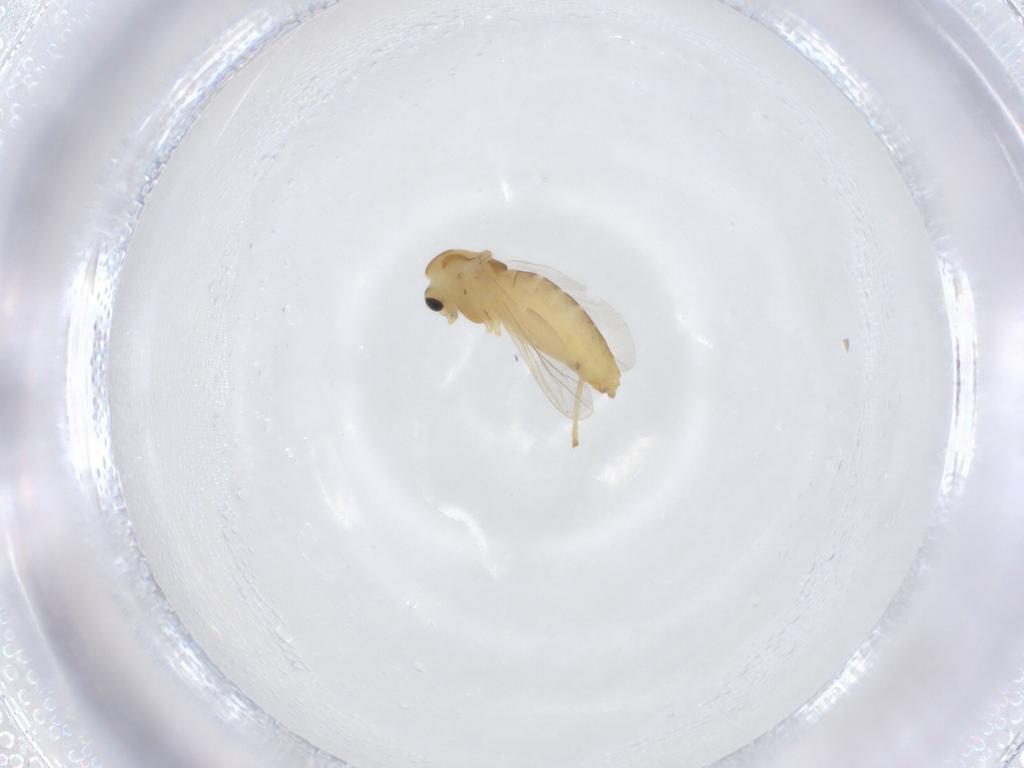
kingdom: Animalia
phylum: Arthropoda
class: Insecta
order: Diptera
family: Chironomidae
